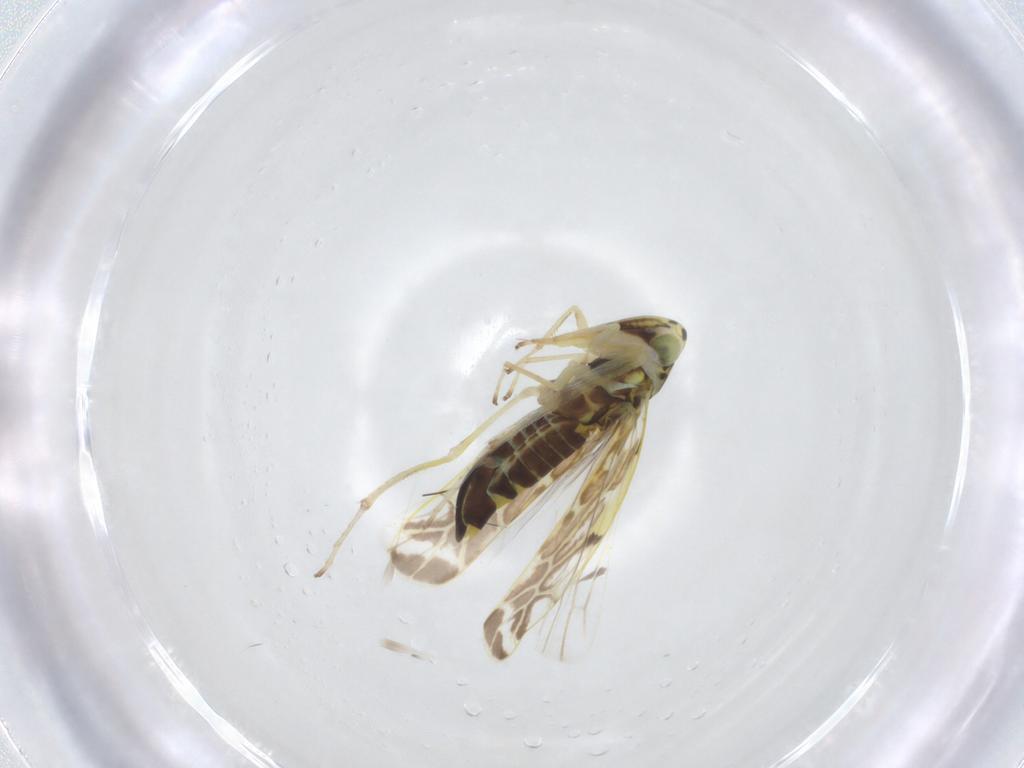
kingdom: Animalia
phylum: Arthropoda
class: Insecta
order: Hemiptera
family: Cicadellidae
